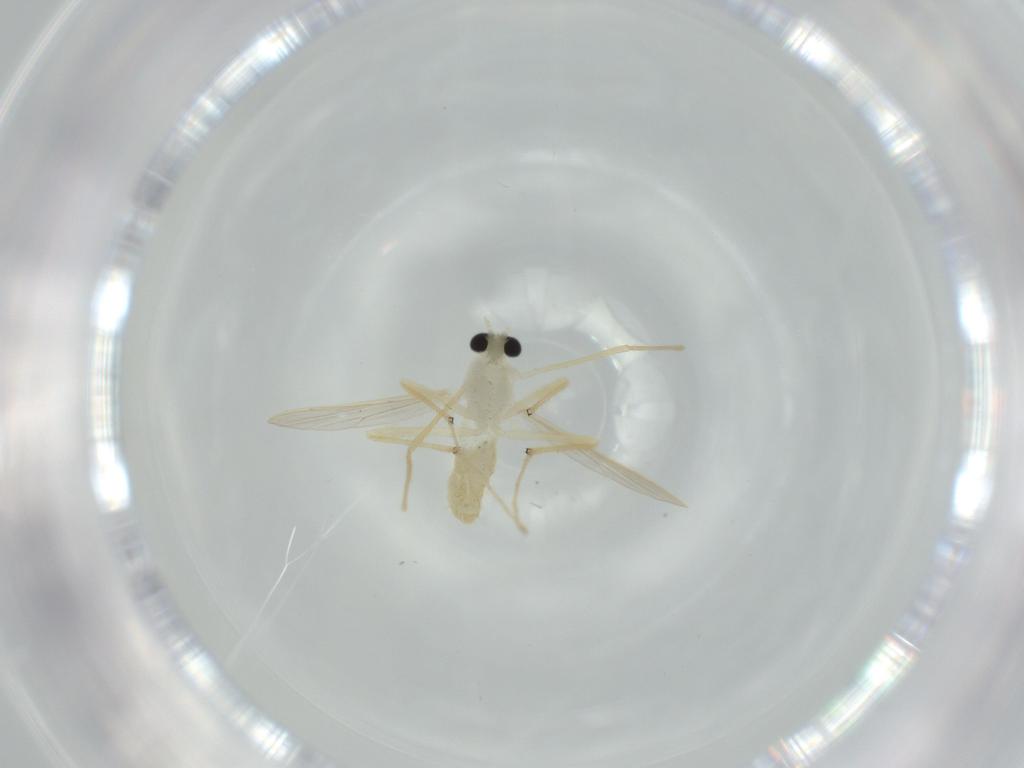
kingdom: Animalia
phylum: Arthropoda
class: Insecta
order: Diptera
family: Chironomidae
